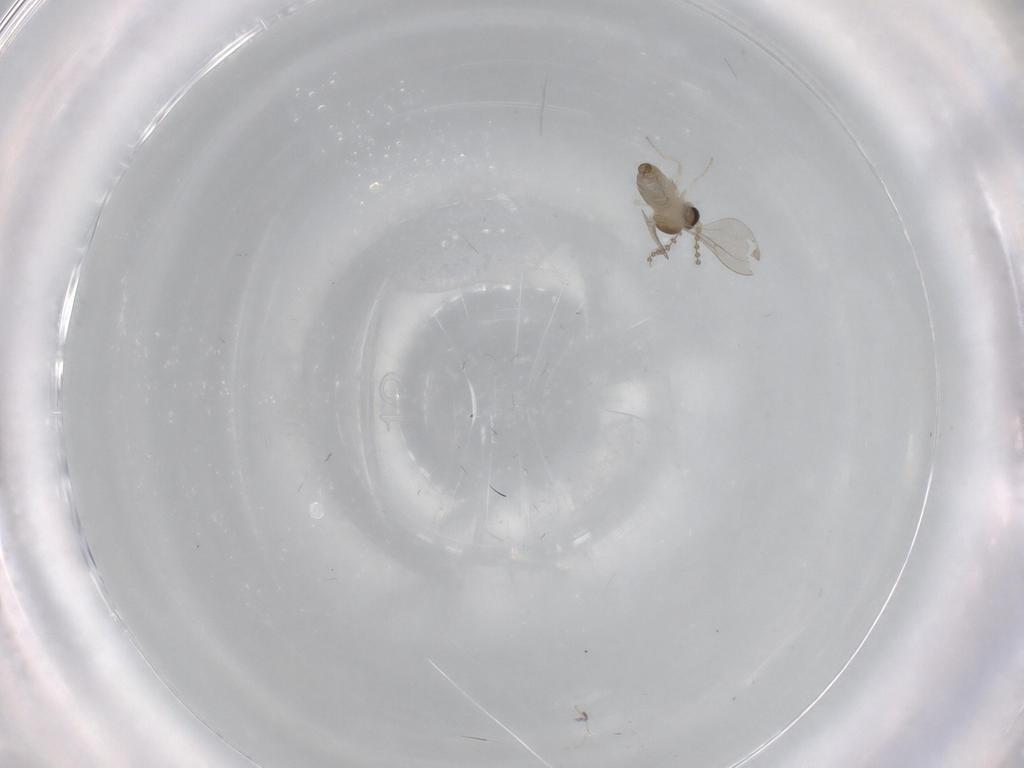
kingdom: Animalia
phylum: Arthropoda
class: Insecta
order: Diptera
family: Cecidomyiidae
